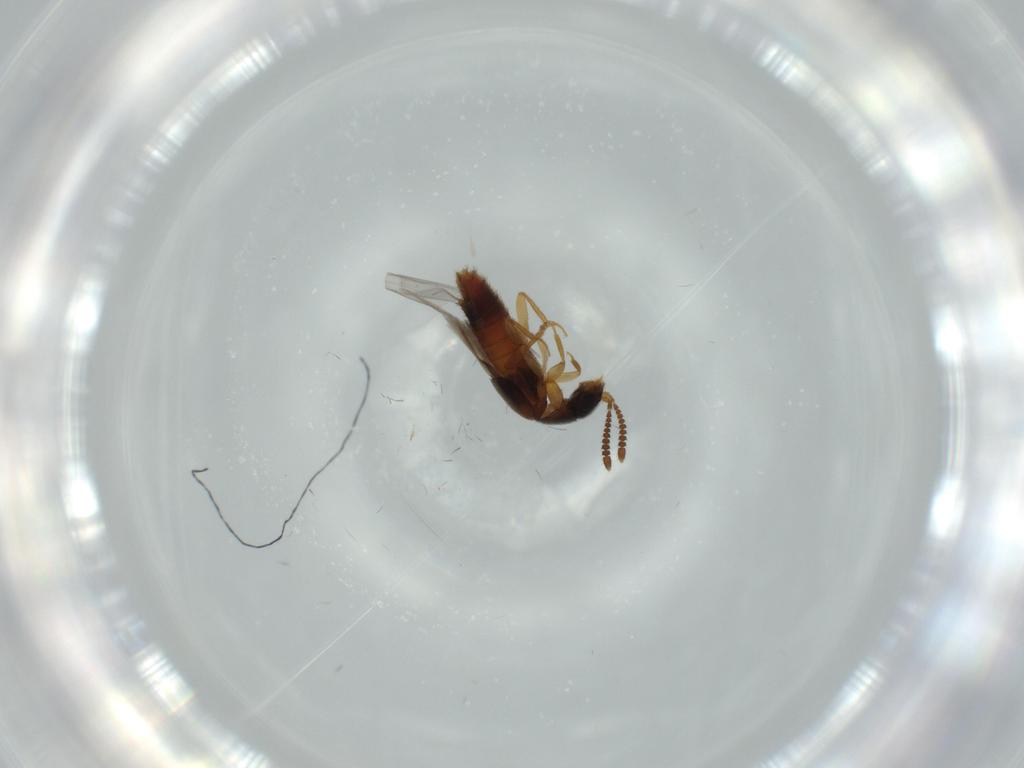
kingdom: Animalia
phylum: Arthropoda
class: Insecta
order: Coleoptera
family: Staphylinidae
